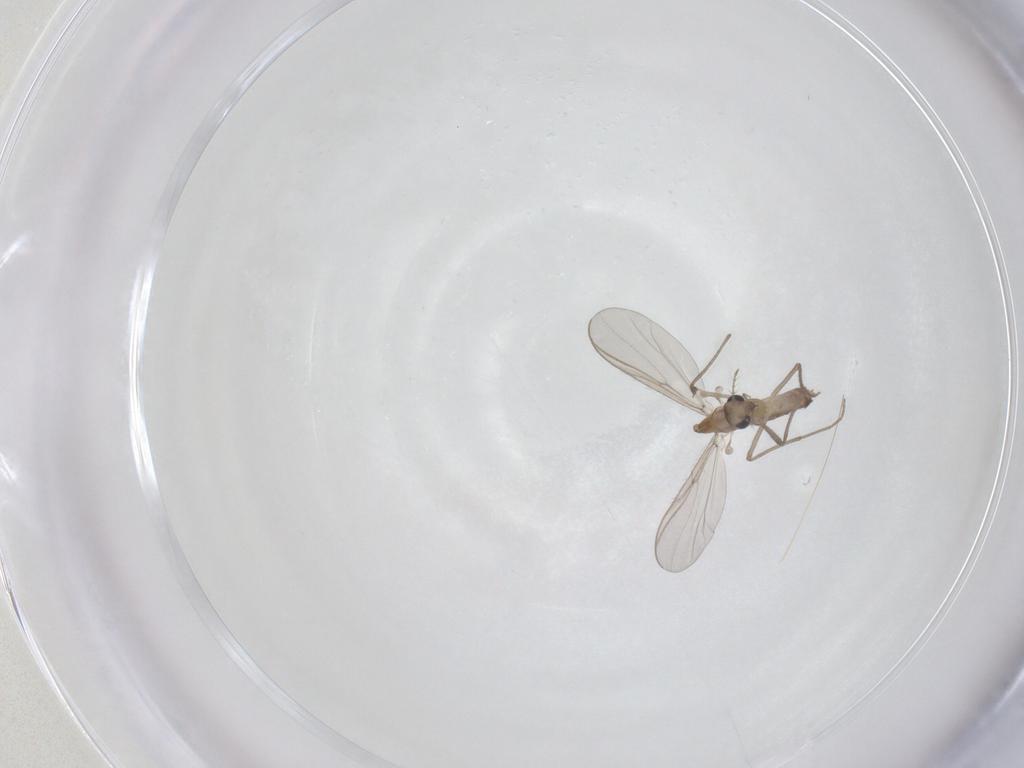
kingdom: Animalia
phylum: Arthropoda
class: Insecta
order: Diptera
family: Chironomidae
